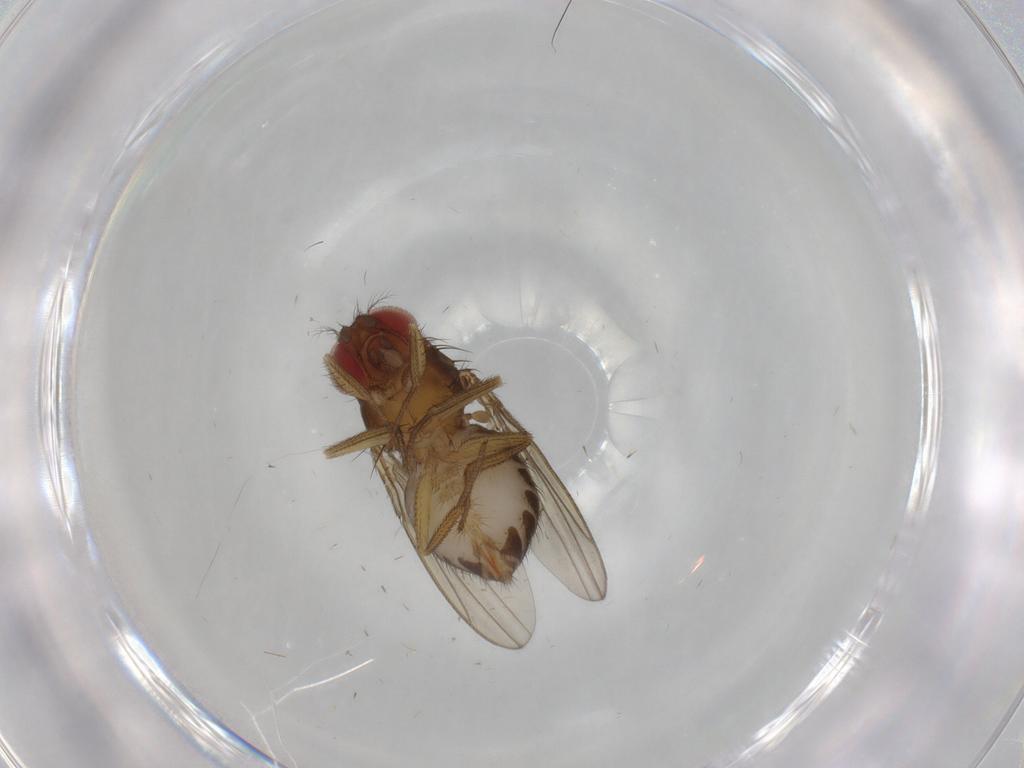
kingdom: Animalia
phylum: Arthropoda
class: Insecta
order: Diptera
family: Drosophilidae
